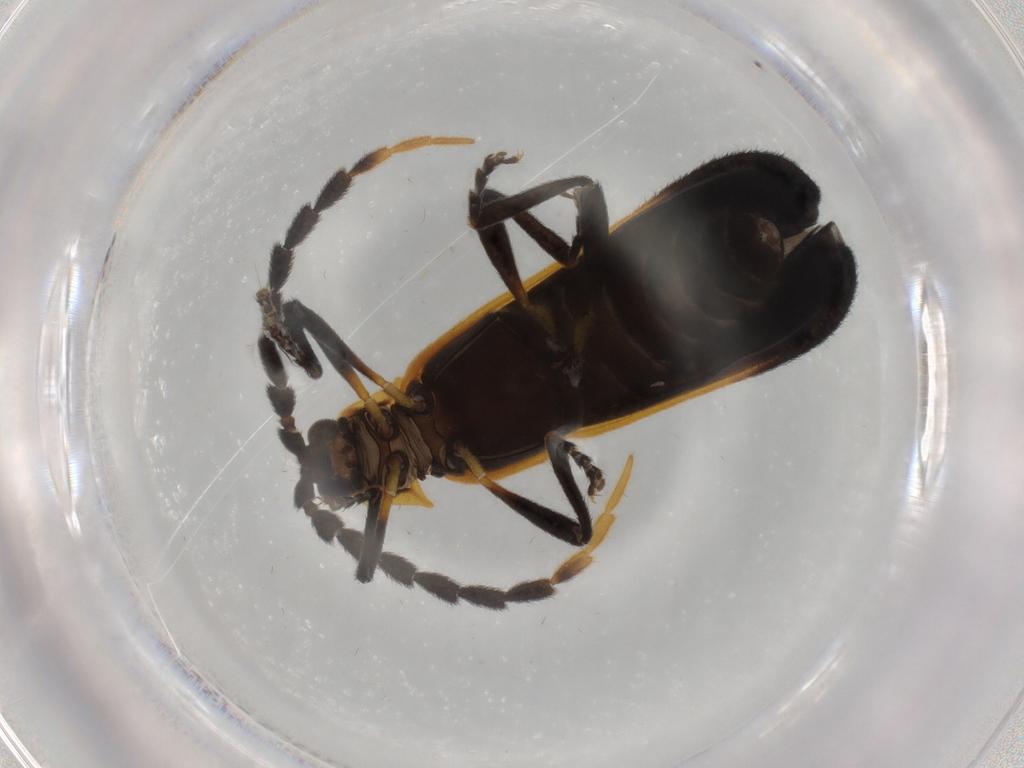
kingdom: Animalia
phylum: Arthropoda
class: Insecta
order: Coleoptera
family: Lycidae
